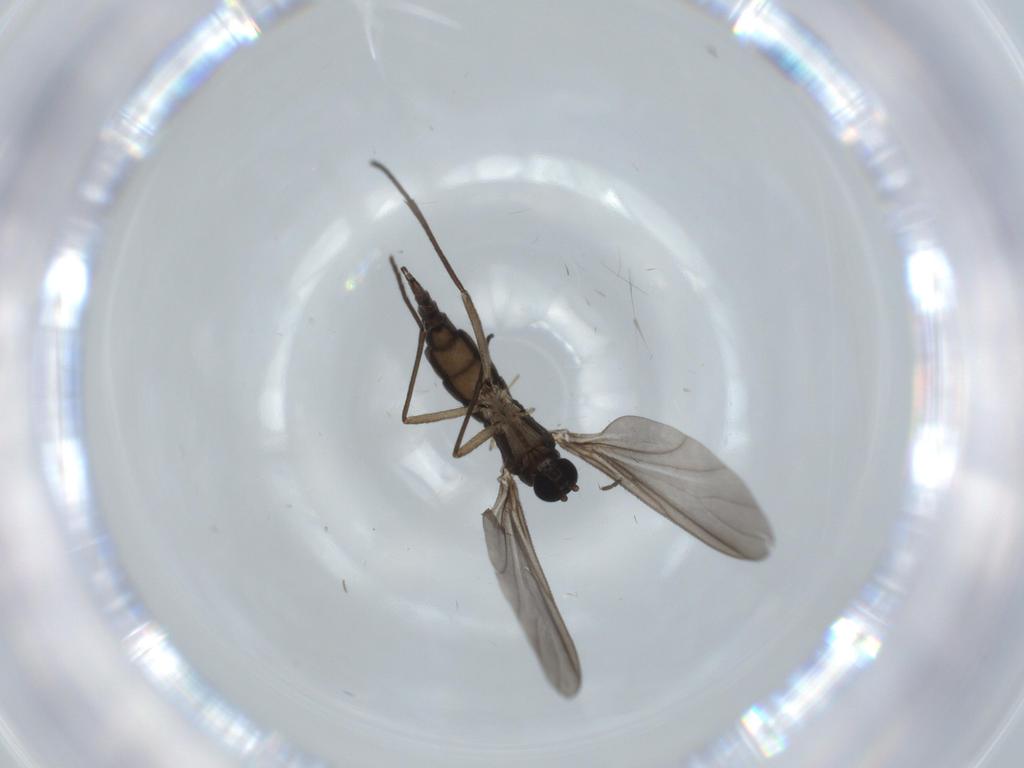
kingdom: Animalia
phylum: Arthropoda
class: Insecta
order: Diptera
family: Sciaridae
